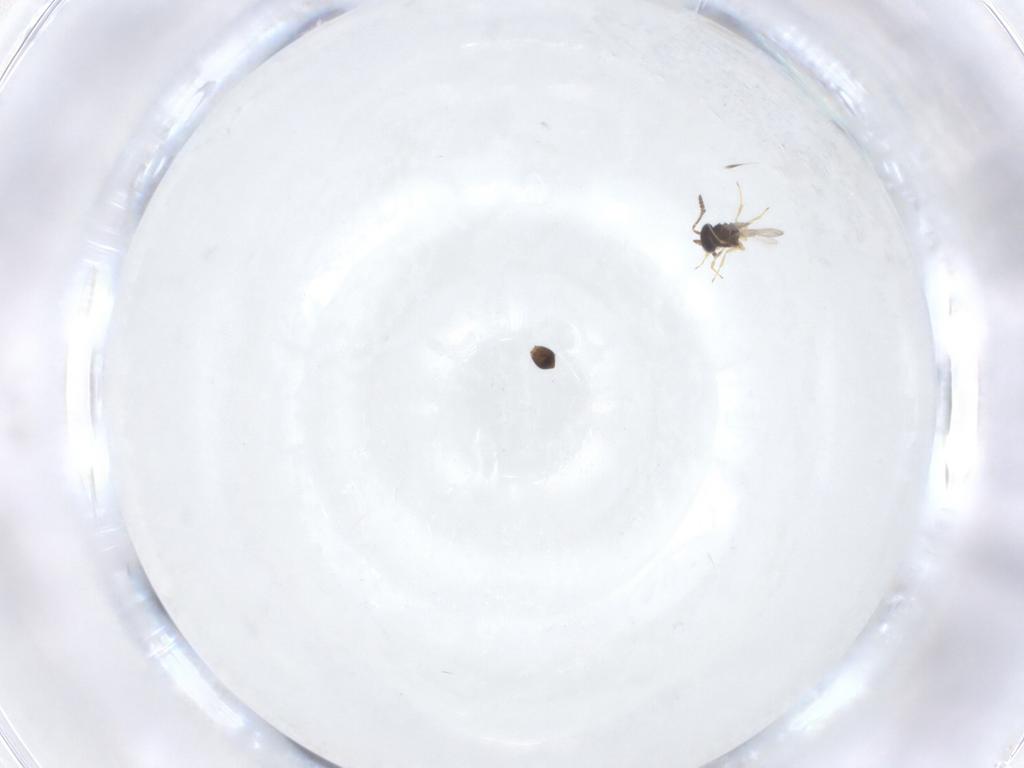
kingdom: Animalia
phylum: Arthropoda
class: Insecta
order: Hymenoptera
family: Scelionidae
